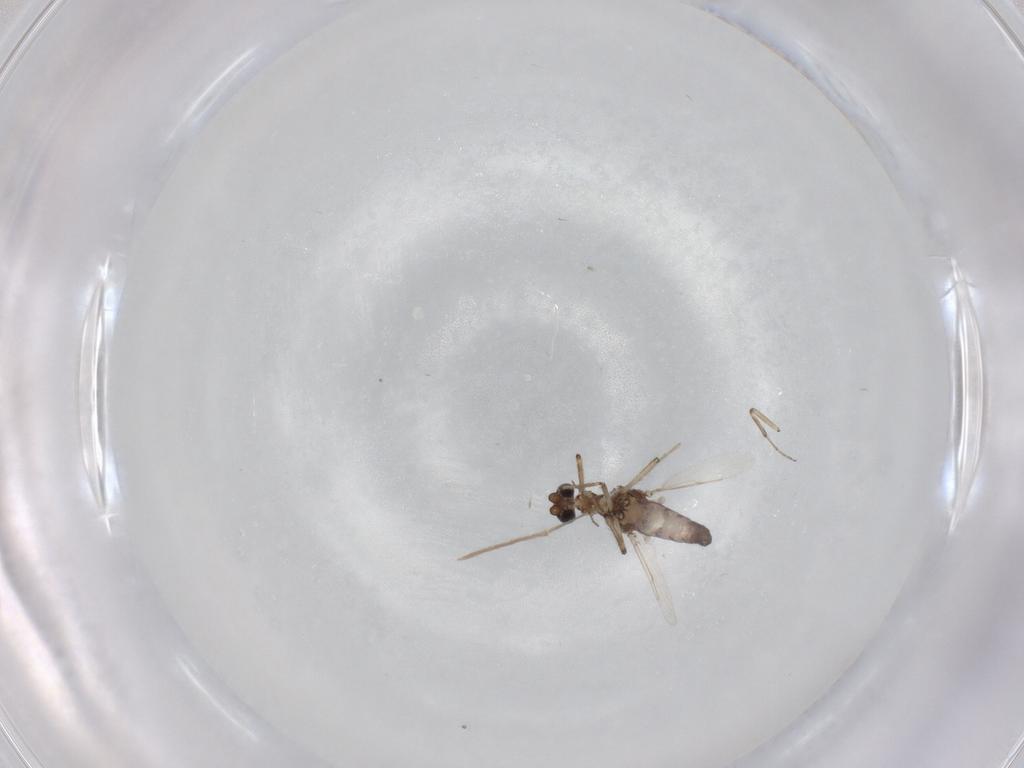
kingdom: Animalia
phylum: Arthropoda
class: Insecta
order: Diptera
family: Ceratopogonidae
